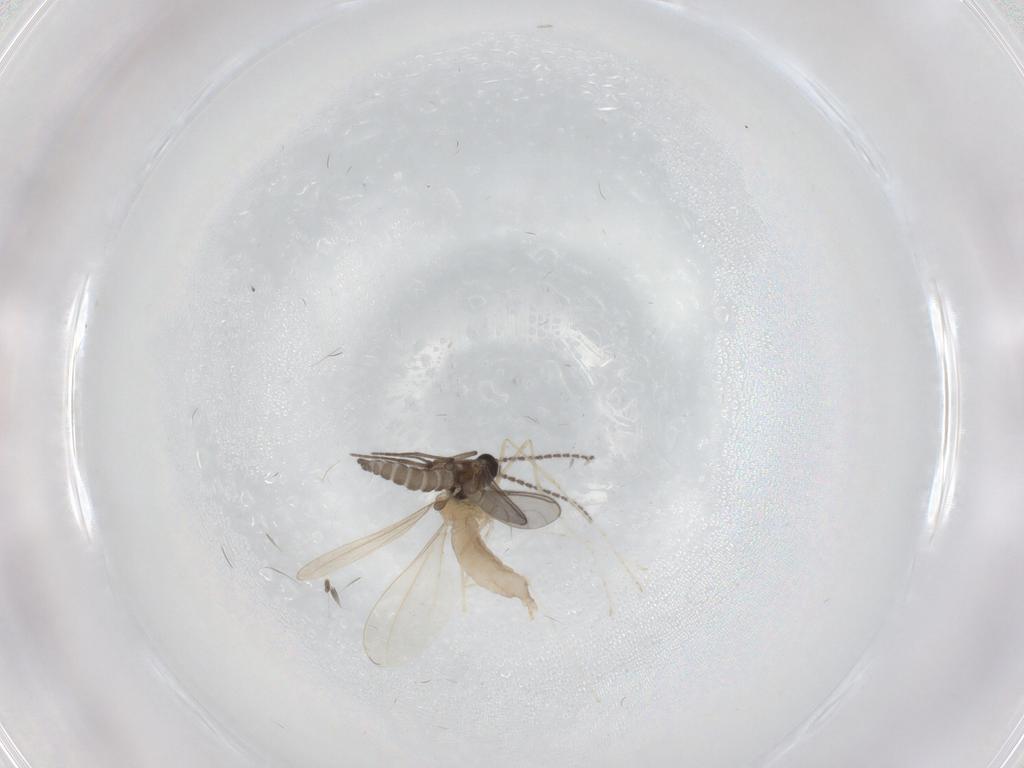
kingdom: Animalia
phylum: Arthropoda
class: Insecta
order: Diptera
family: Sciaridae
